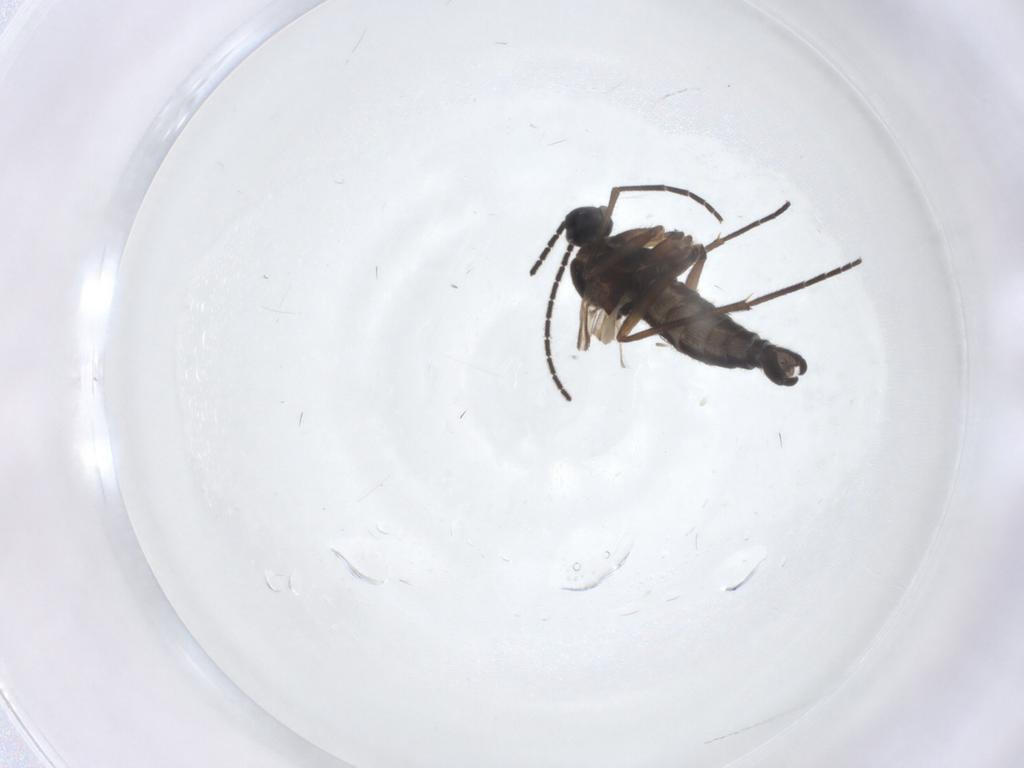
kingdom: Animalia
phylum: Arthropoda
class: Insecta
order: Diptera
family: Sciaridae
